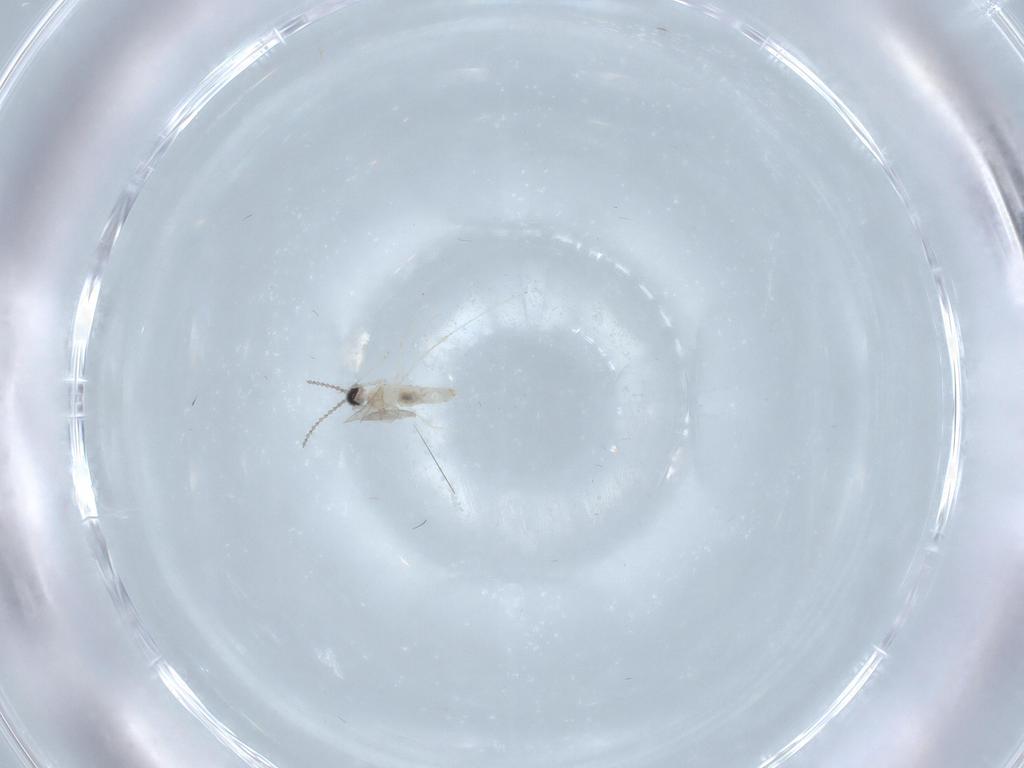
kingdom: Animalia
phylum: Arthropoda
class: Insecta
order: Diptera
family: Cecidomyiidae
